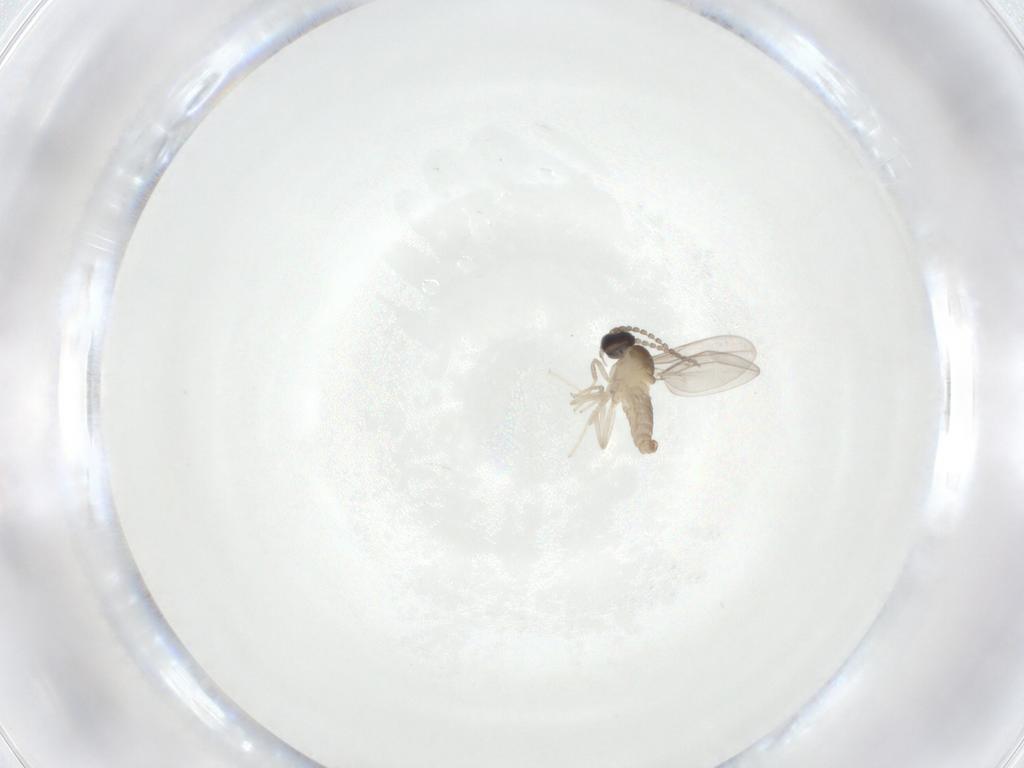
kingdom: Animalia
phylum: Arthropoda
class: Insecta
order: Diptera
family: Cecidomyiidae
